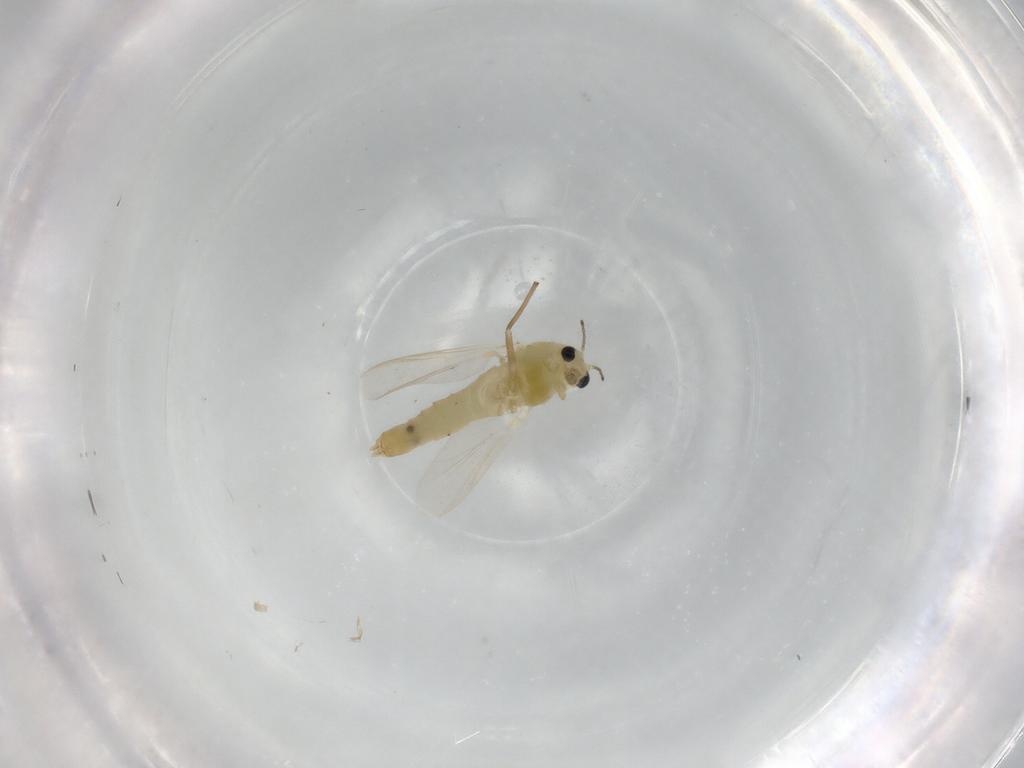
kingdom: Animalia
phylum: Arthropoda
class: Insecta
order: Diptera
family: Chironomidae
